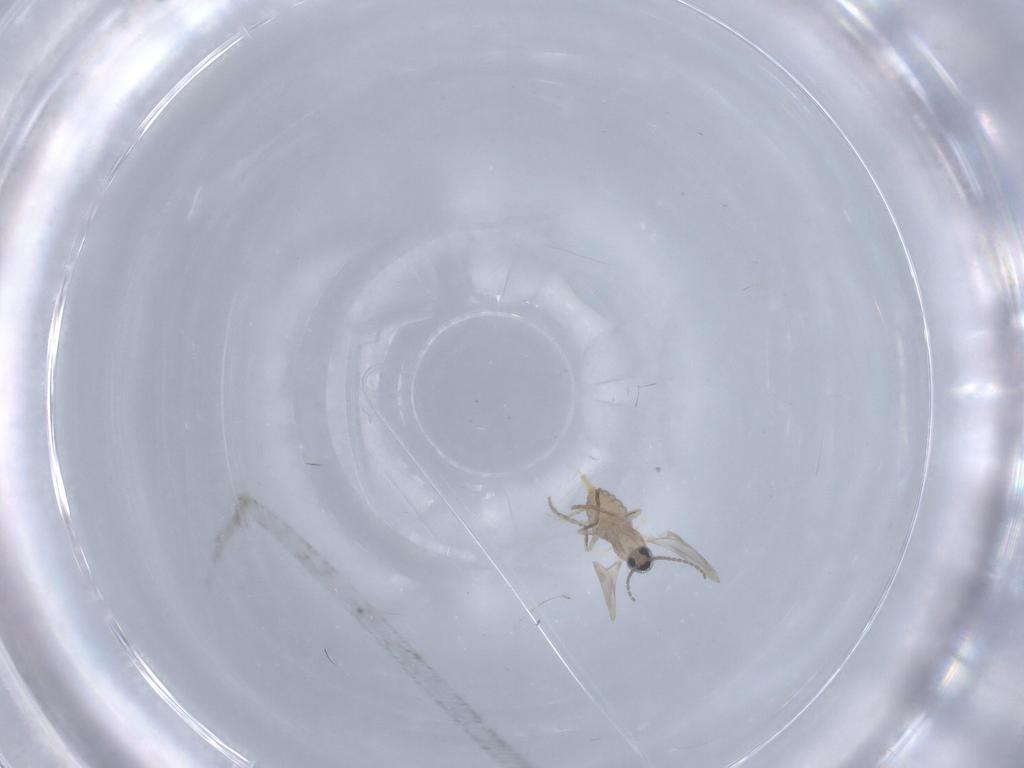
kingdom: Animalia
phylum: Arthropoda
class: Insecta
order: Diptera
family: Cecidomyiidae
